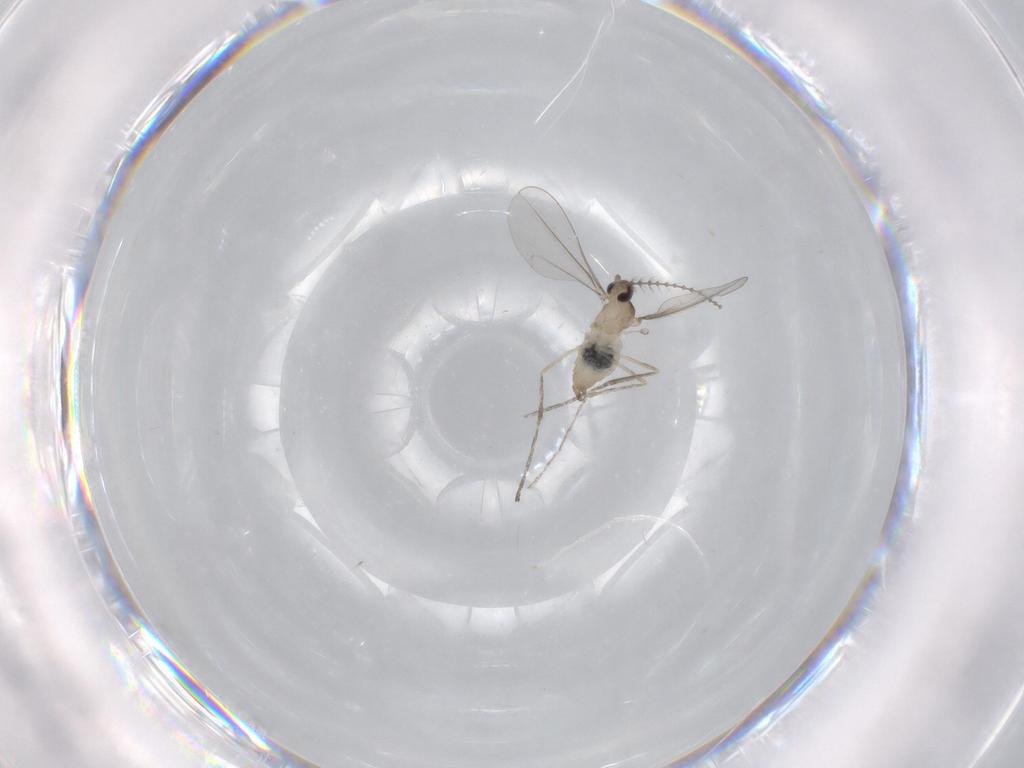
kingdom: Animalia
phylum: Arthropoda
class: Insecta
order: Diptera
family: Cecidomyiidae
